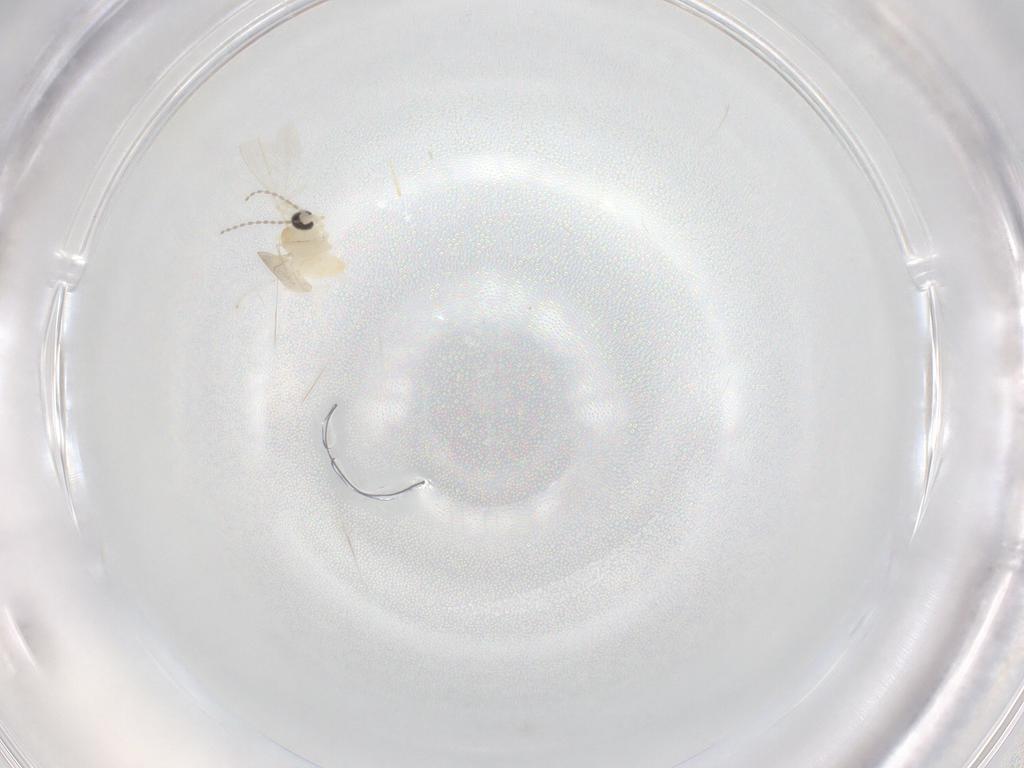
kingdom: Animalia
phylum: Arthropoda
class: Insecta
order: Diptera
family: Cecidomyiidae
